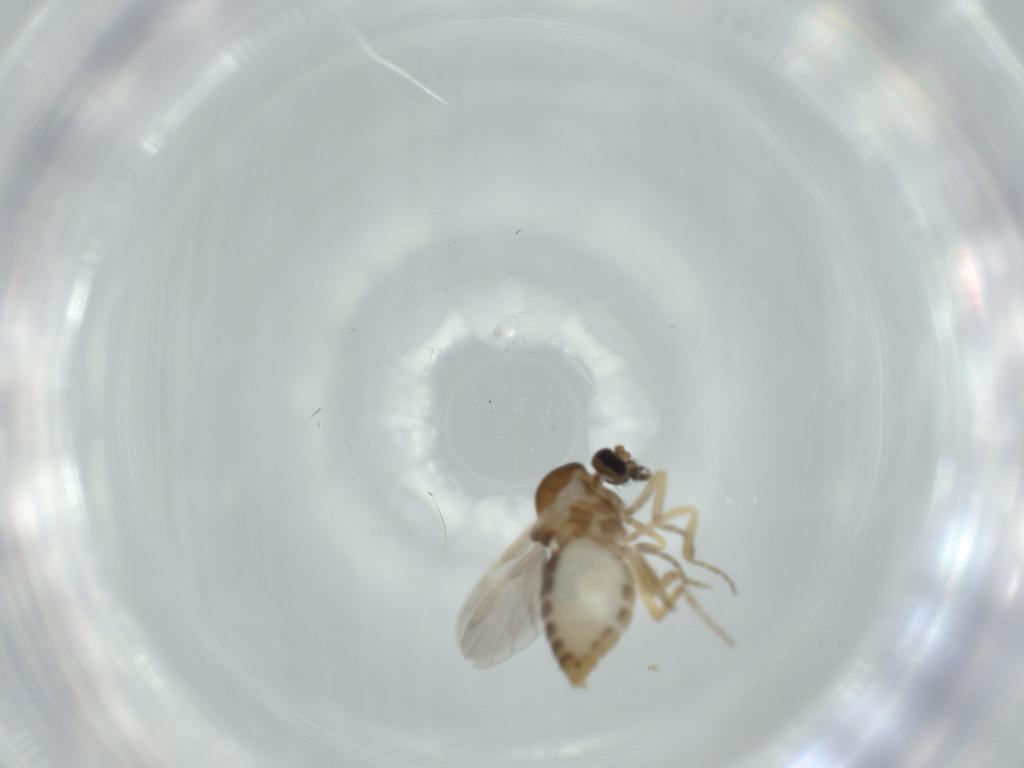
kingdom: Animalia
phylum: Arthropoda
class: Insecta
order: Diptera
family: Ceratopogonidae
